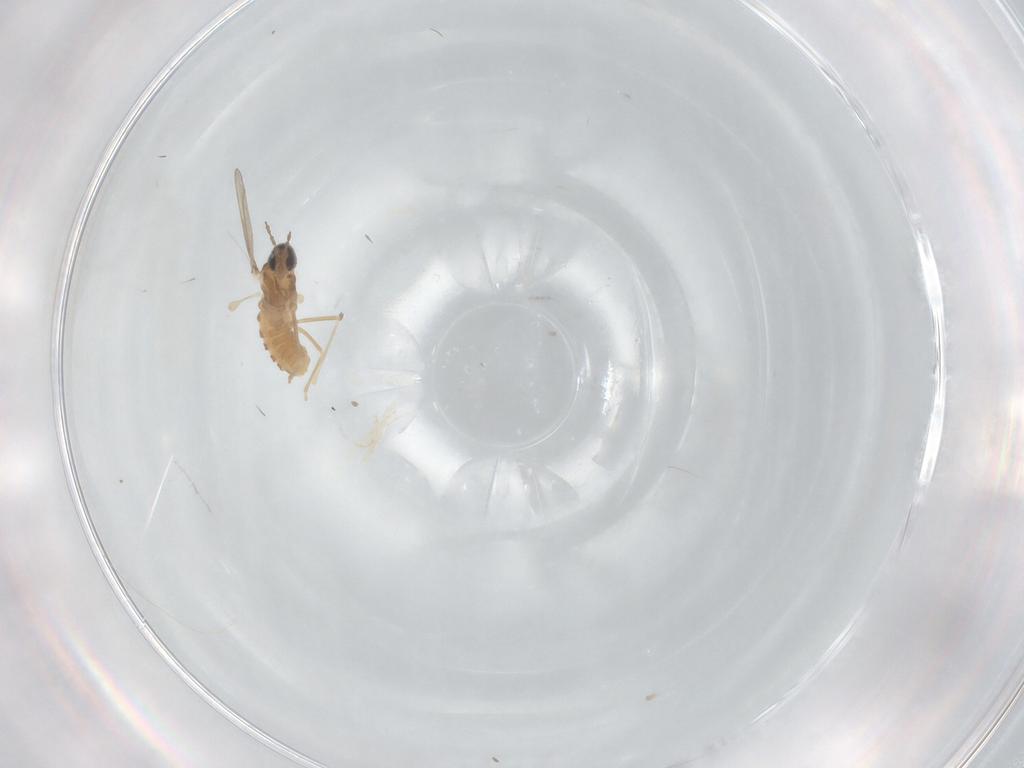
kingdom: Animalia
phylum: Arthropoda
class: Insecta
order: Diptera
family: Cecidomyiidae
